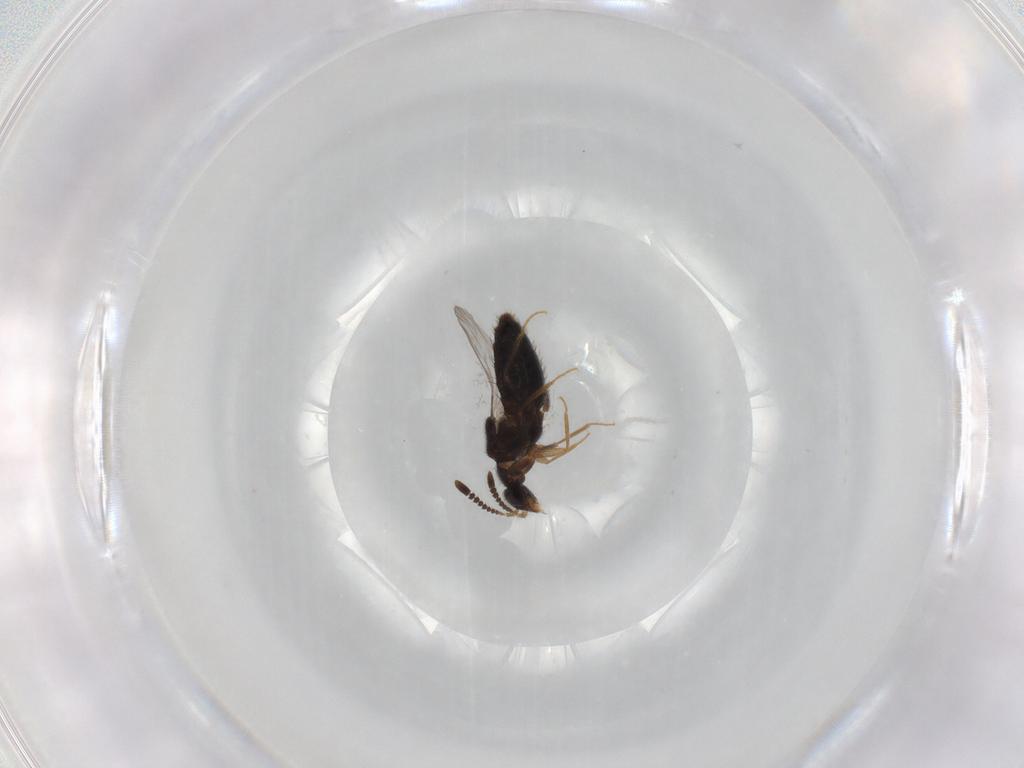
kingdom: Animalia
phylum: Arthropoda
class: Insecta
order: Coleoptera
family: Staphylinidae
